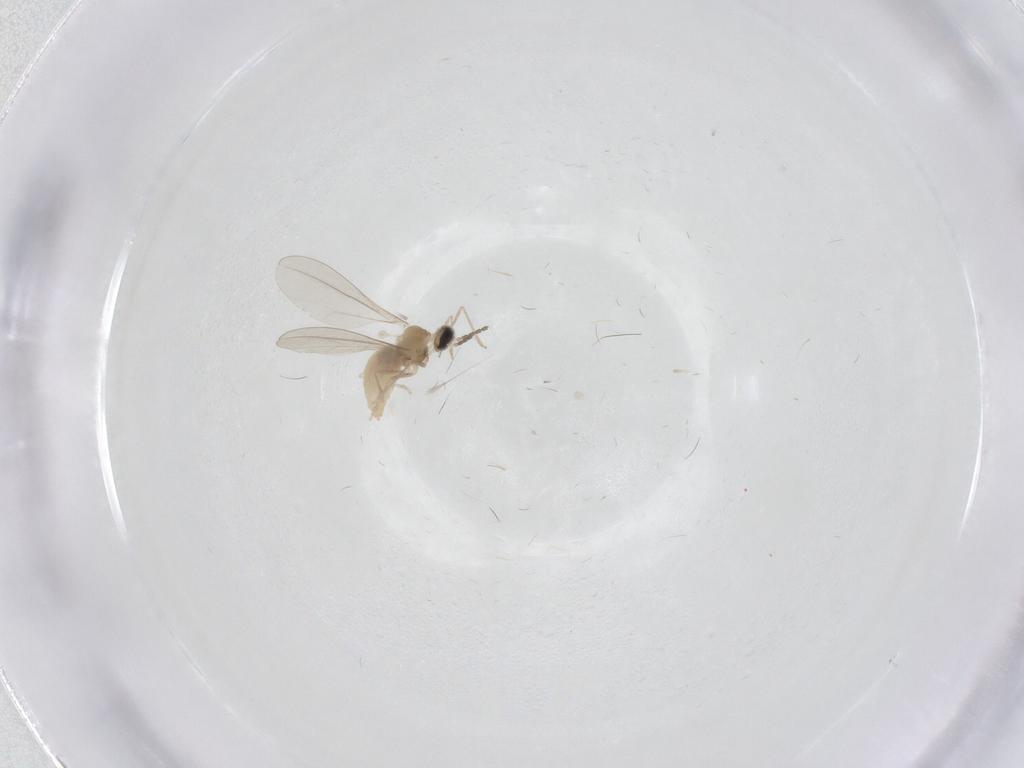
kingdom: Animalia
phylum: Arthropoda
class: Insecta
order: Diptera
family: Cecidomyiidae
